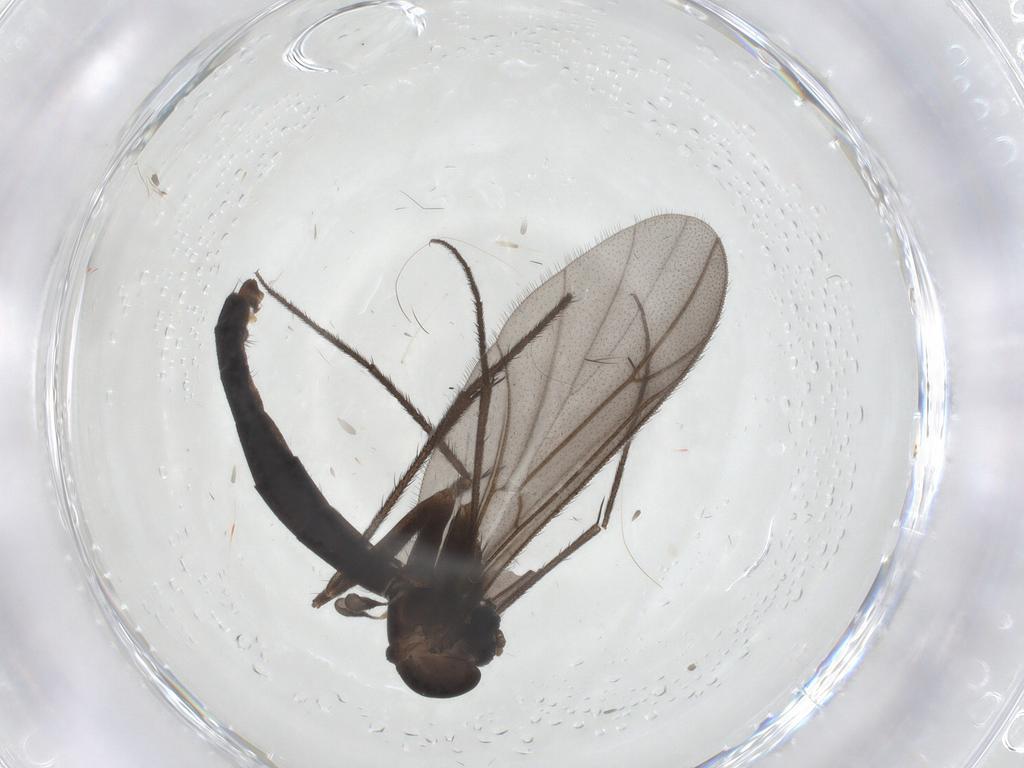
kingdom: Animalia
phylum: Arthropoda
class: Insecta
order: Diptera
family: Ditomyiidae
